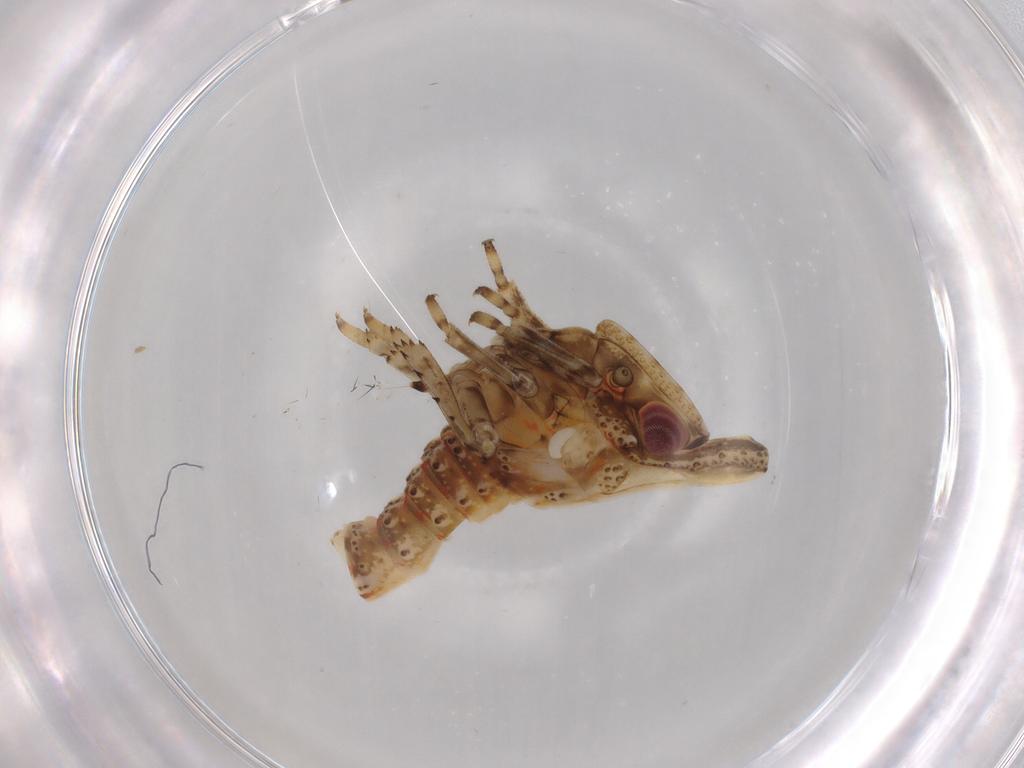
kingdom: Animalia
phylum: Arthropoda
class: Insecta
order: Hemiptera
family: Fulgoroidea_incertae_sedis
